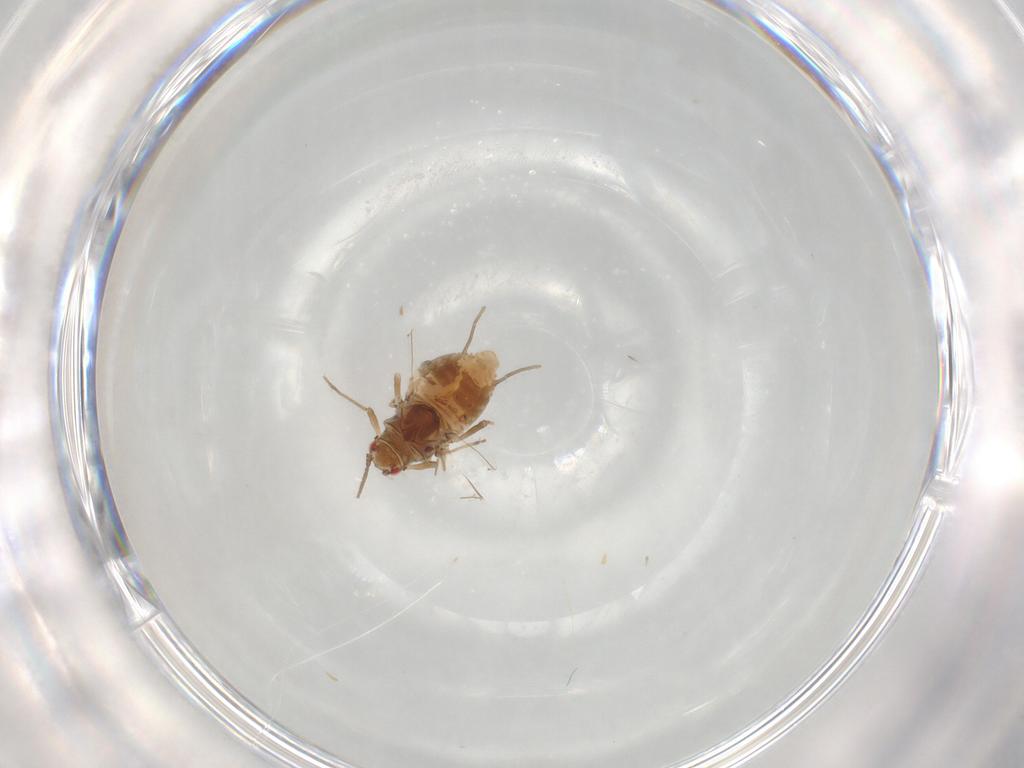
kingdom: Animalia
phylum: Arthropoda
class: Insecta
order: Hemiptera
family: Aphididae
